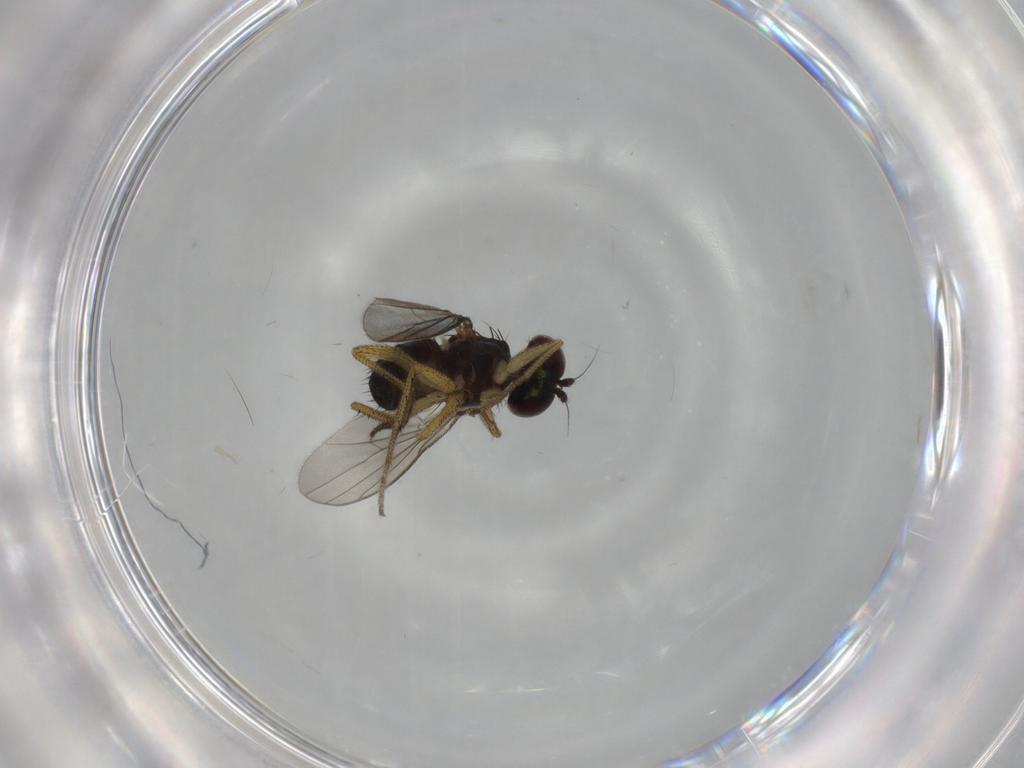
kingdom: Animalia
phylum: Arthropoda
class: Insecta
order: Diptera
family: Dolichopodidae
